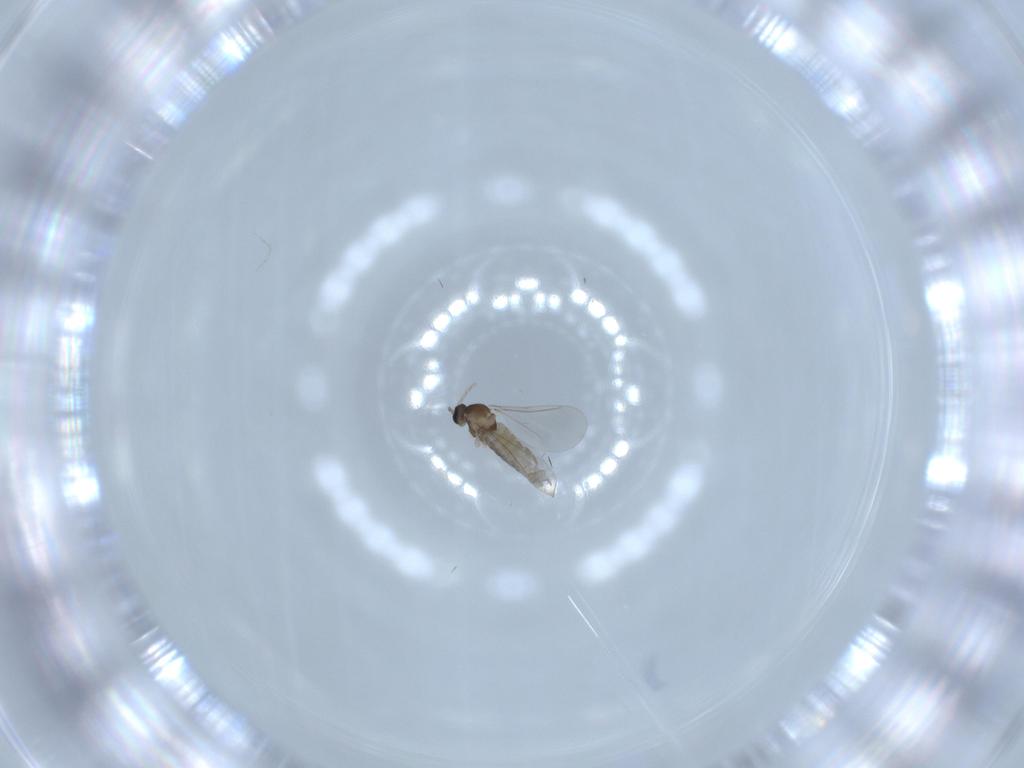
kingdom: Animalia
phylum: Arthropoda
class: Insecta
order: Diptera
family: Cecidomyiidae
